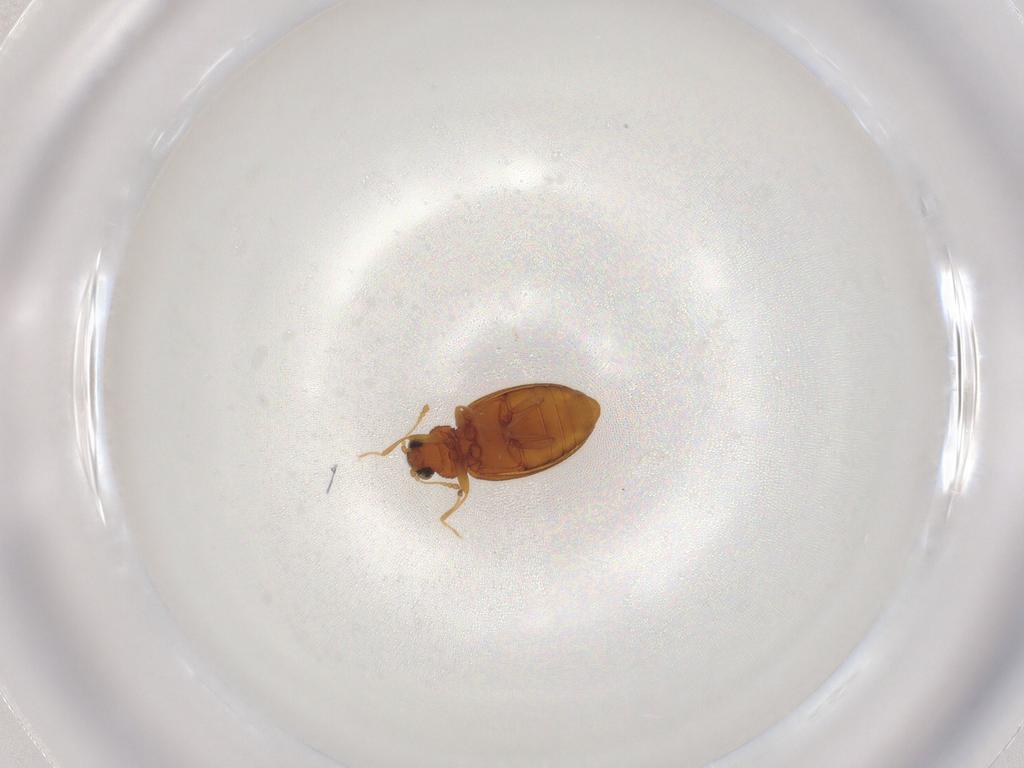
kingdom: Animalia
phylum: Arthropoda
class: Insecta
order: Coleoptera
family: Latridiidae
